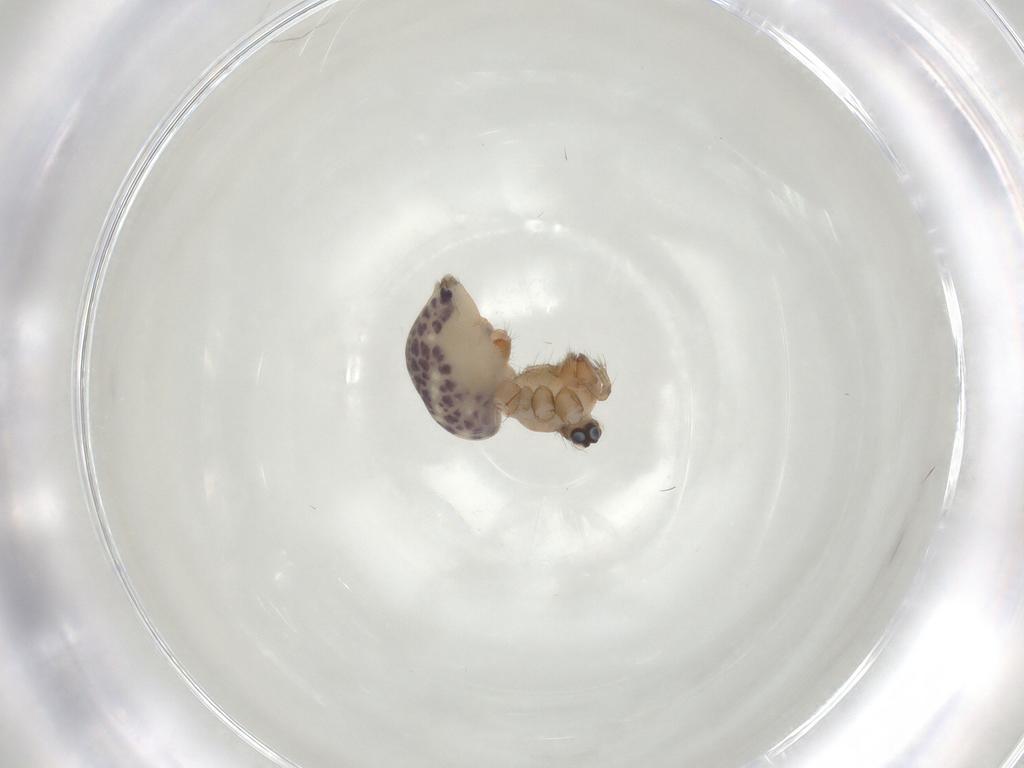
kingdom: Animalia
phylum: Arthropoda
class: Arachnida
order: Araneae
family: Pholcidae
